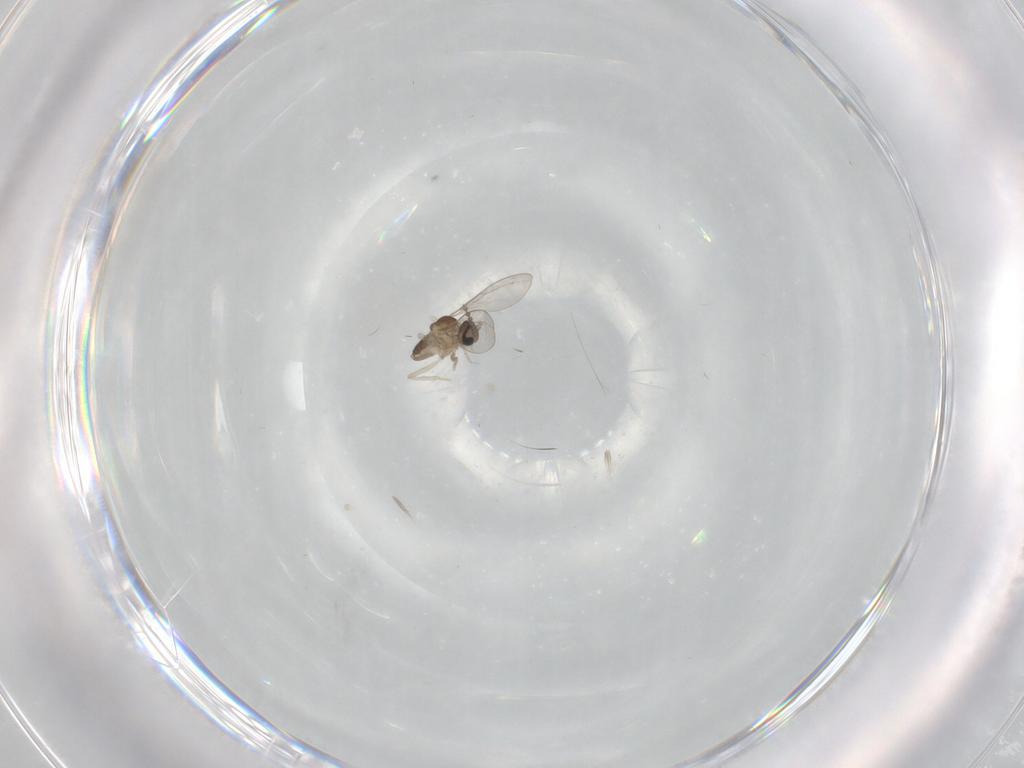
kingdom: Animalia
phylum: Arthropoda
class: Insecta
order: Diptera
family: Cecidomyiidae
